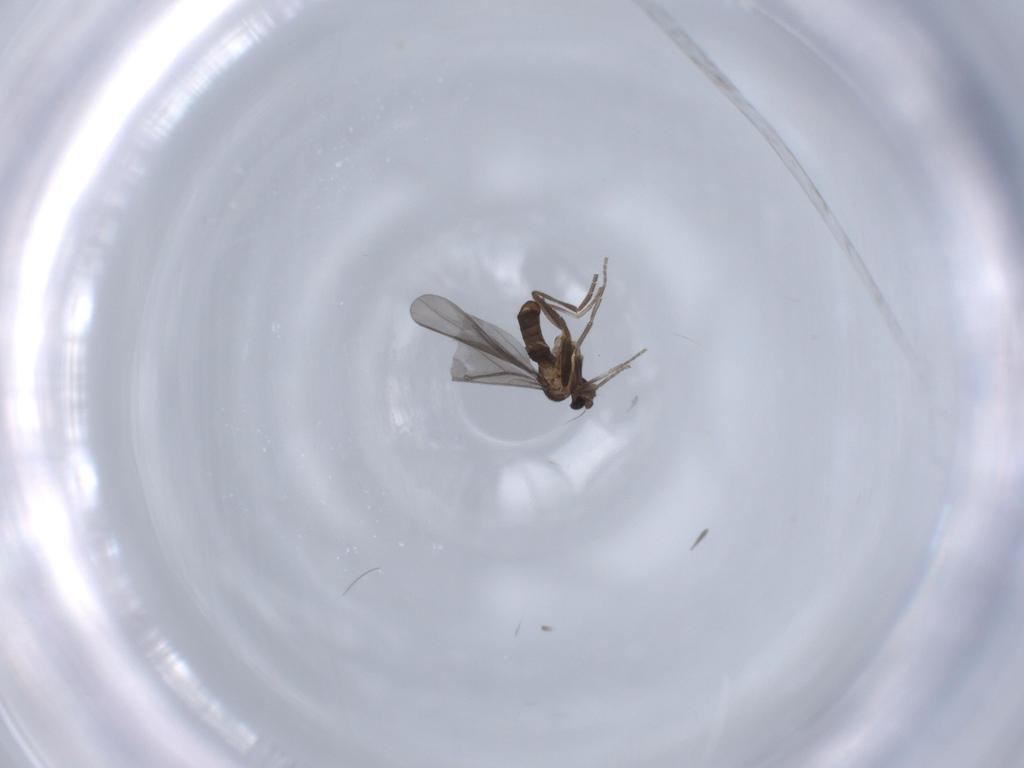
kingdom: Animalia
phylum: Arthropoda
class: Insecta
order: Diptera
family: Phoridae
